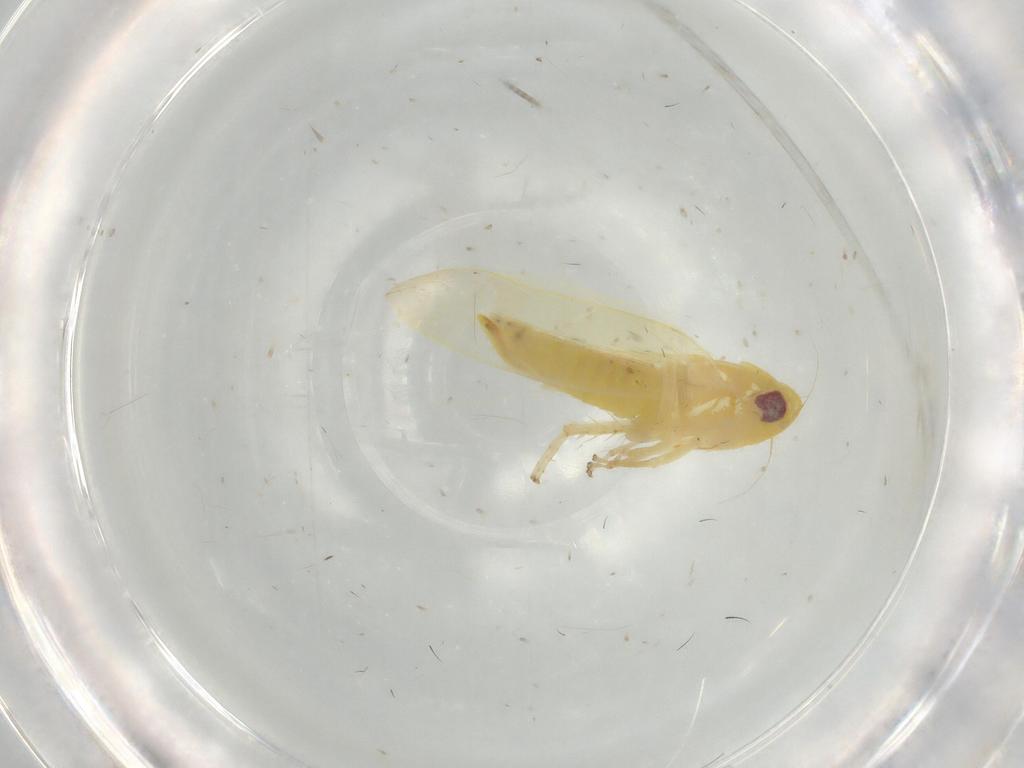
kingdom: Animalia
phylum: Arthropoda
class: Insecta
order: Hemiptera
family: Cicadellidae
